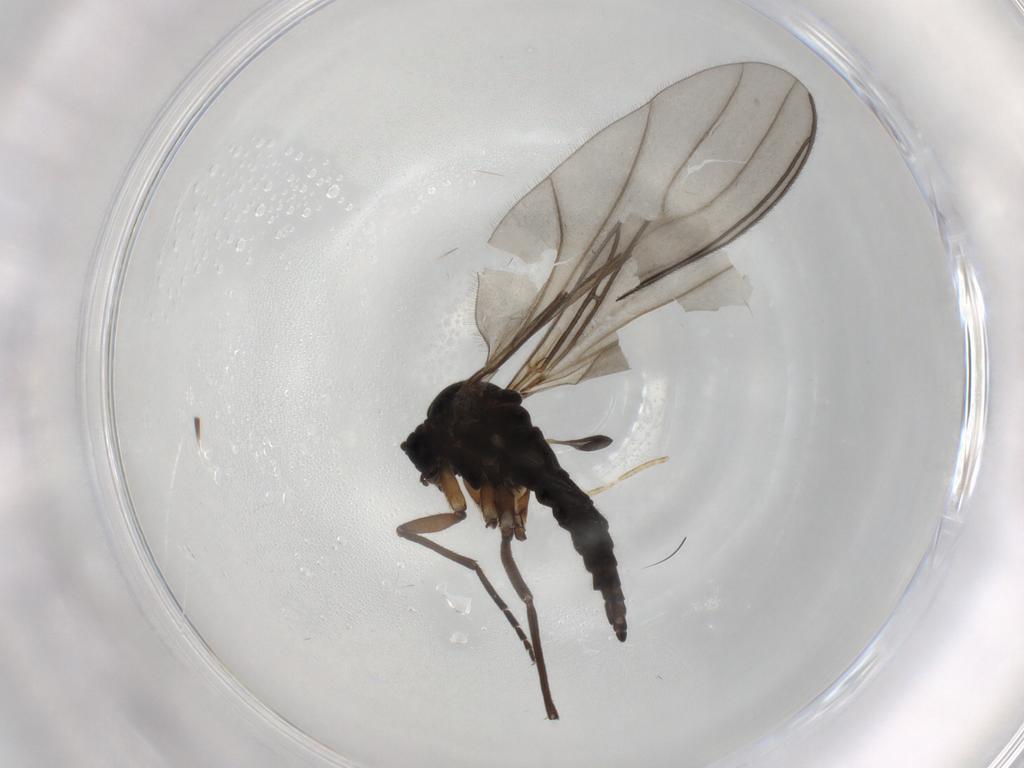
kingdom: Animalia
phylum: Arthropoda
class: Insecta
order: Diptera
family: Sciaridae
